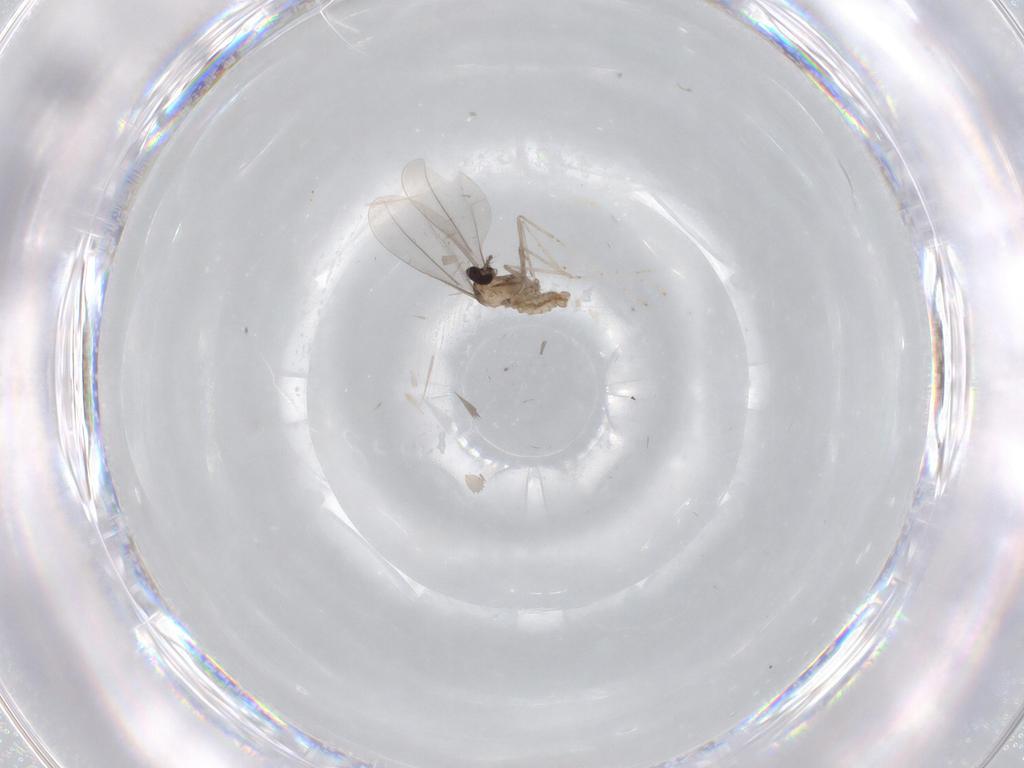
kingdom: Animalia
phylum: Arthropoda
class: Insecta
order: Diptera
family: Cecidomyiidae
